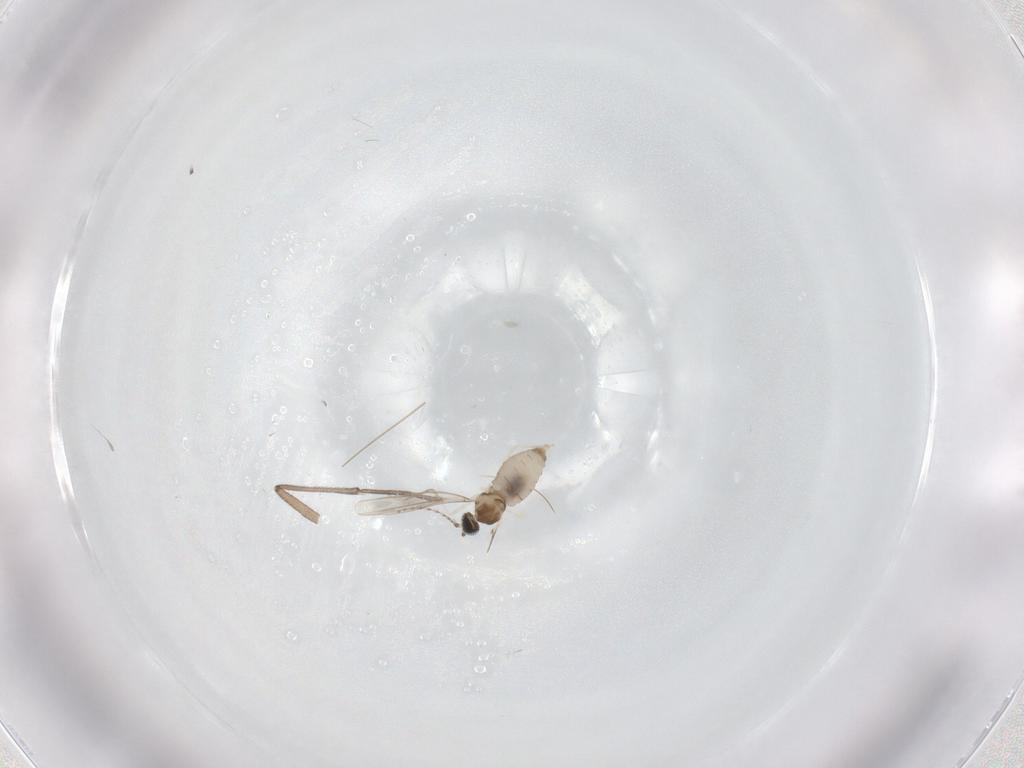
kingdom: Animalia
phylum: Arthropoda
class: Insecta
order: Diptera
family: Cecidomyiidae
